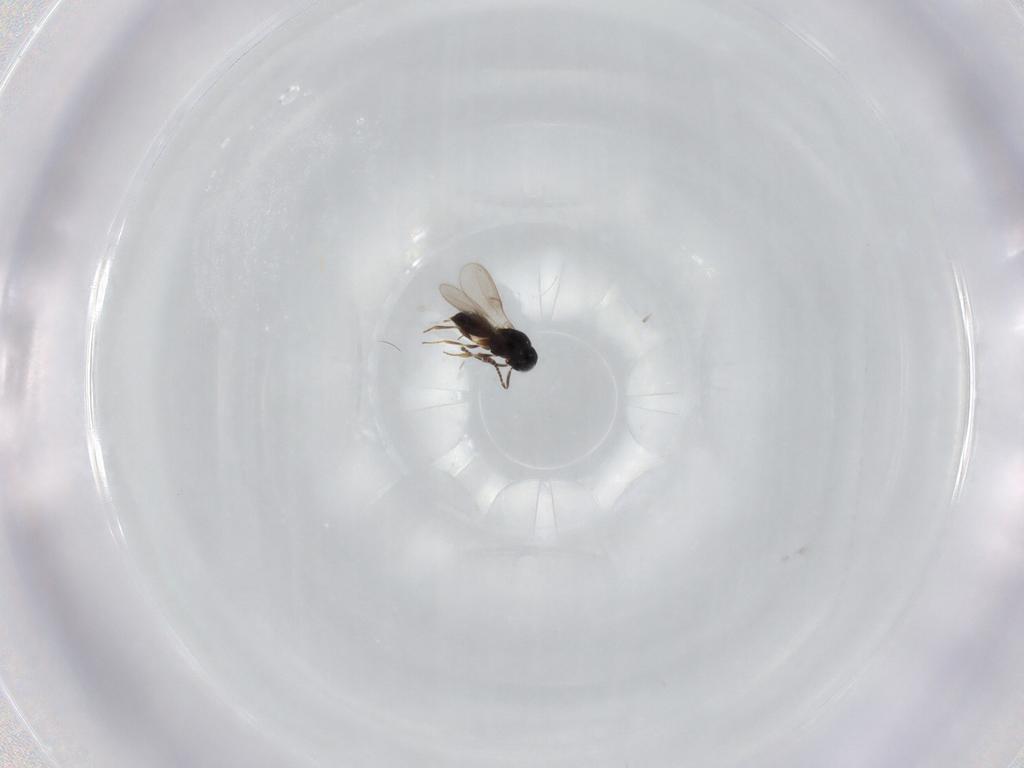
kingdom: Animalia
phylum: Arthropoda
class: Insecta
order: Hymenoptera
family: Scelionidae
